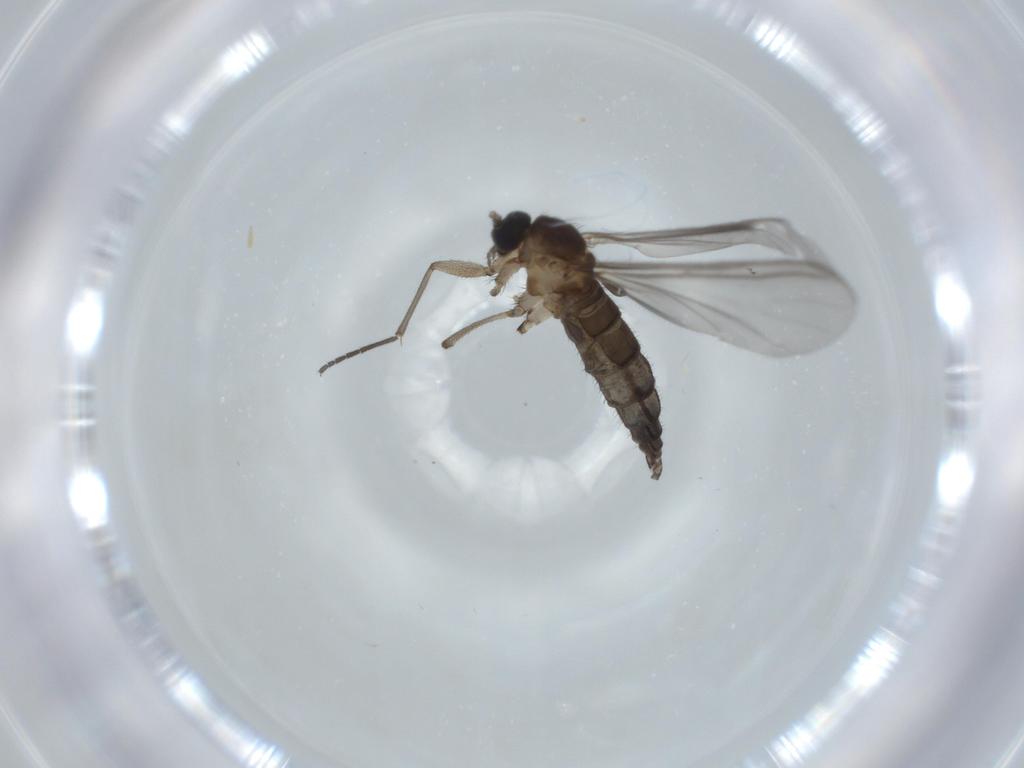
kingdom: Animalia
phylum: Arthropoda
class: Insecta
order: Diptera
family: Sciaridae
